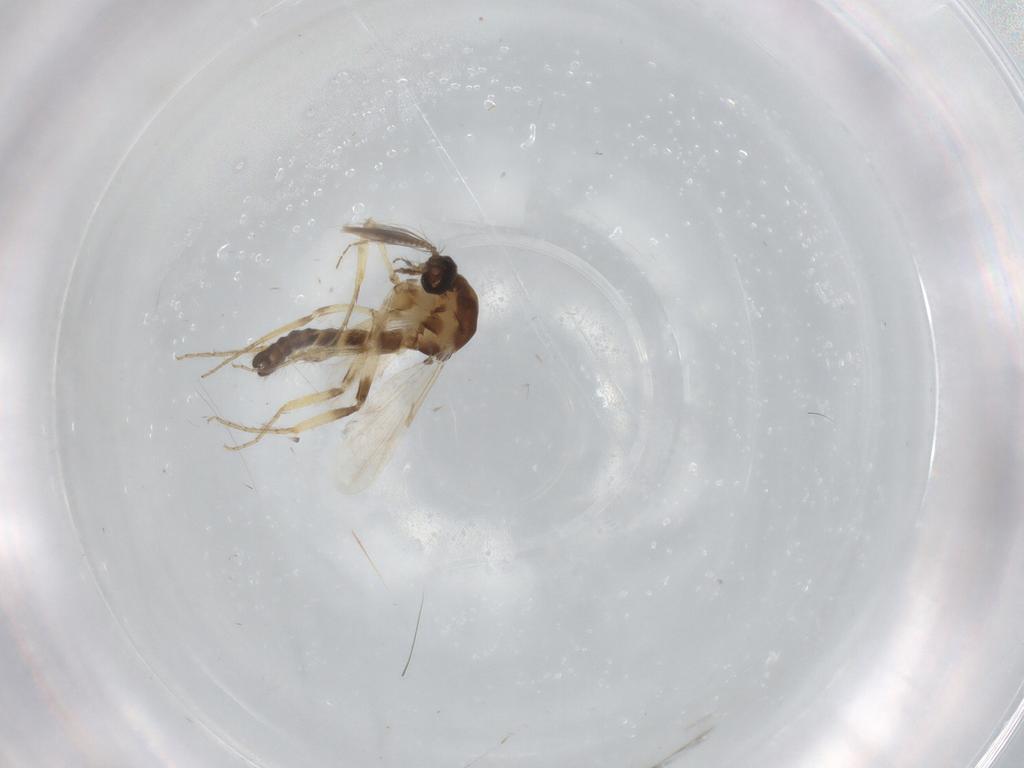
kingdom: Animalia
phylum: Arthropoda
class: Insecta
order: Diptera
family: Ceratopogonidae
